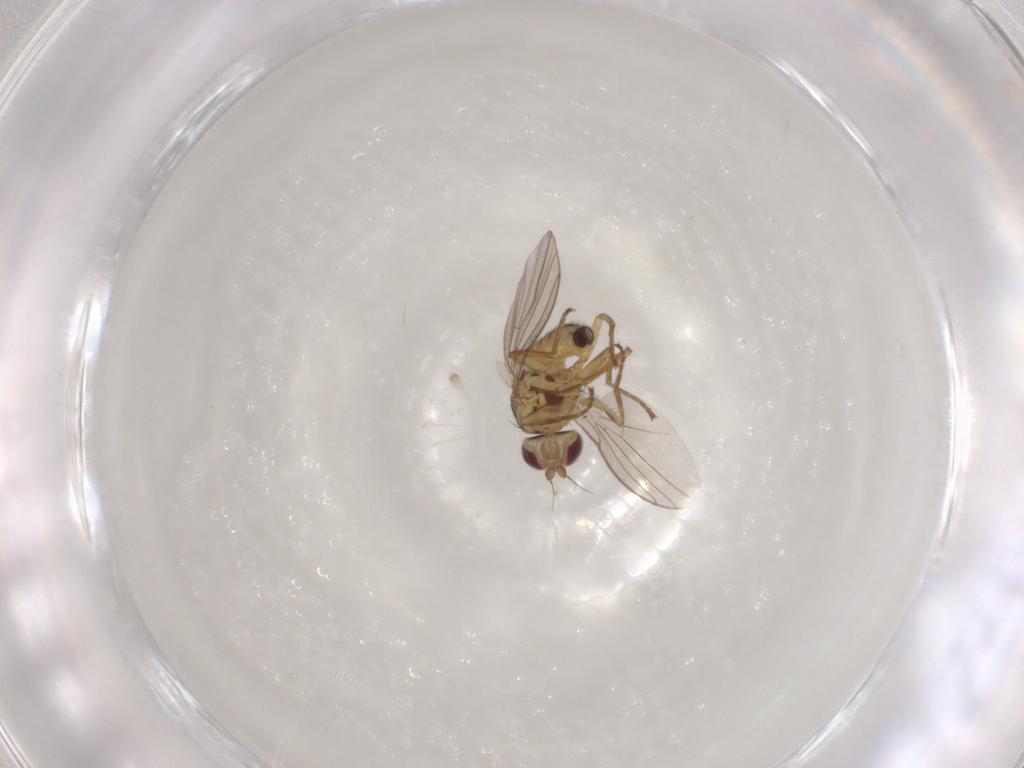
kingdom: Animalia
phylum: Arthropoda
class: Insecta
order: Diptera
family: Agromyzidae
